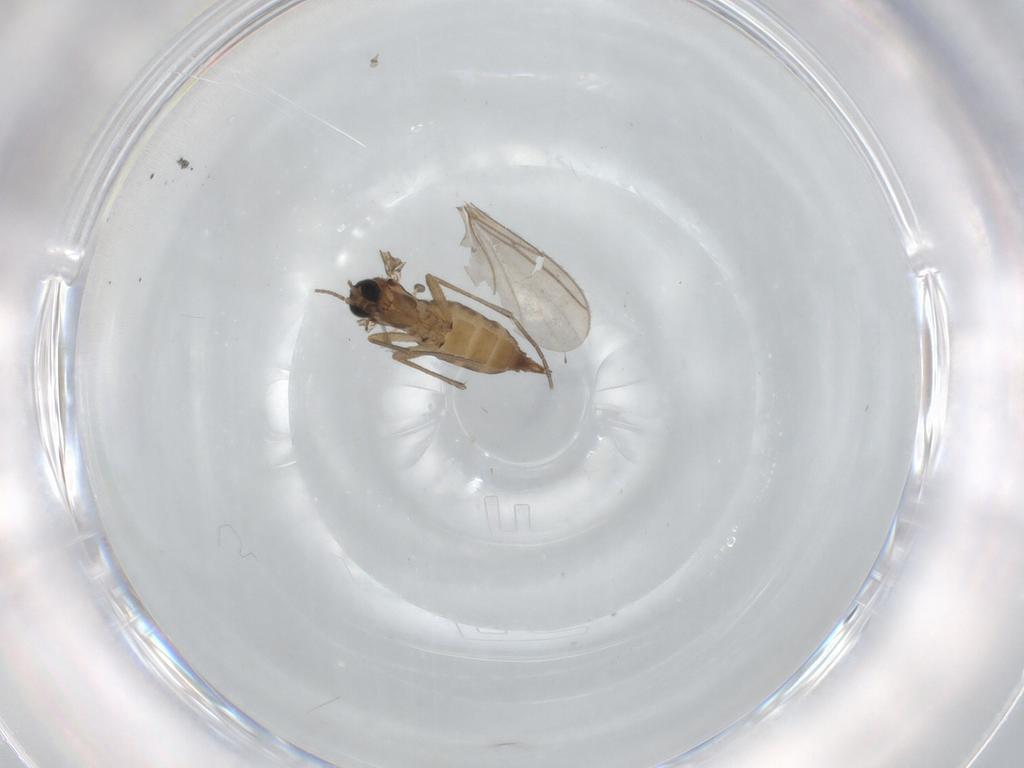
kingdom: Animalia
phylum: Arthropoda
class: Insecta
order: Diptera
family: Sciaridae
